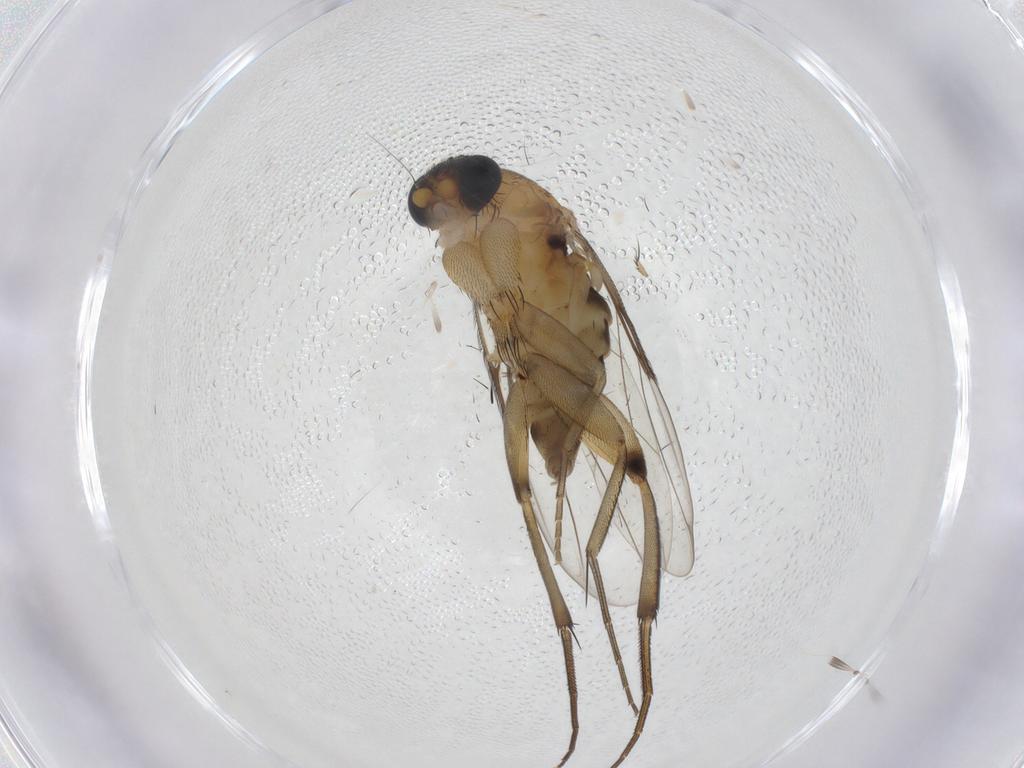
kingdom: Animalia
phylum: Arthropoda
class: Insecta
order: Diptera
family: Phoridae
